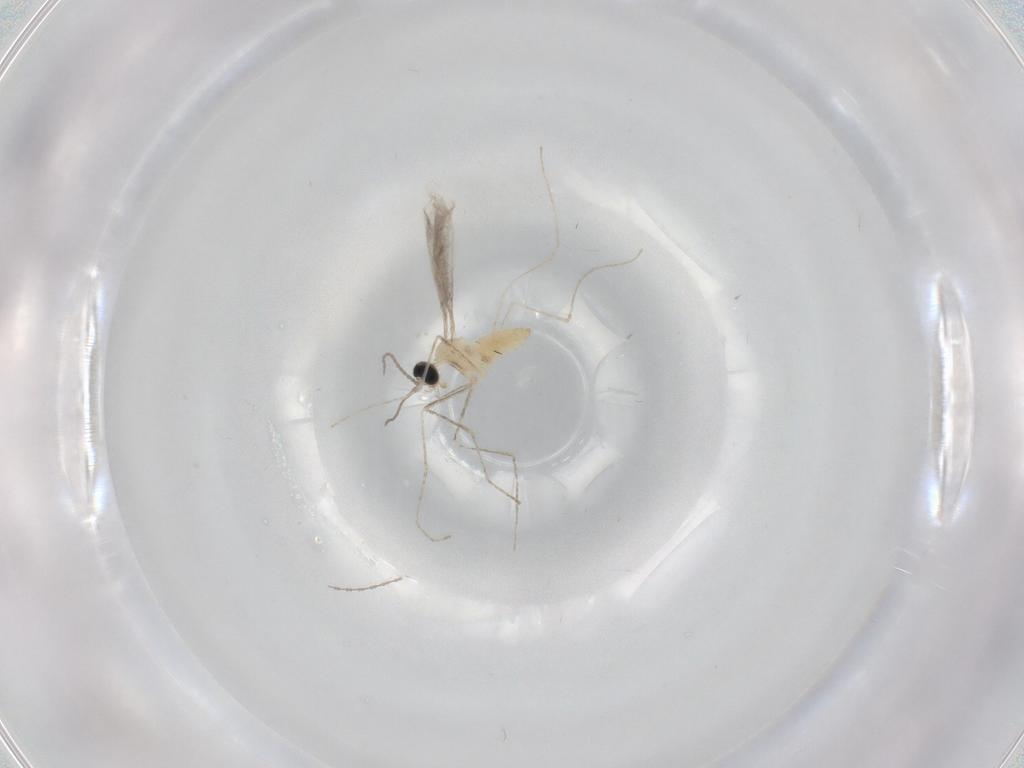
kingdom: Animalia
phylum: Arthropoda
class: Insecta
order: Diptera
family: Cecidomyiidae
